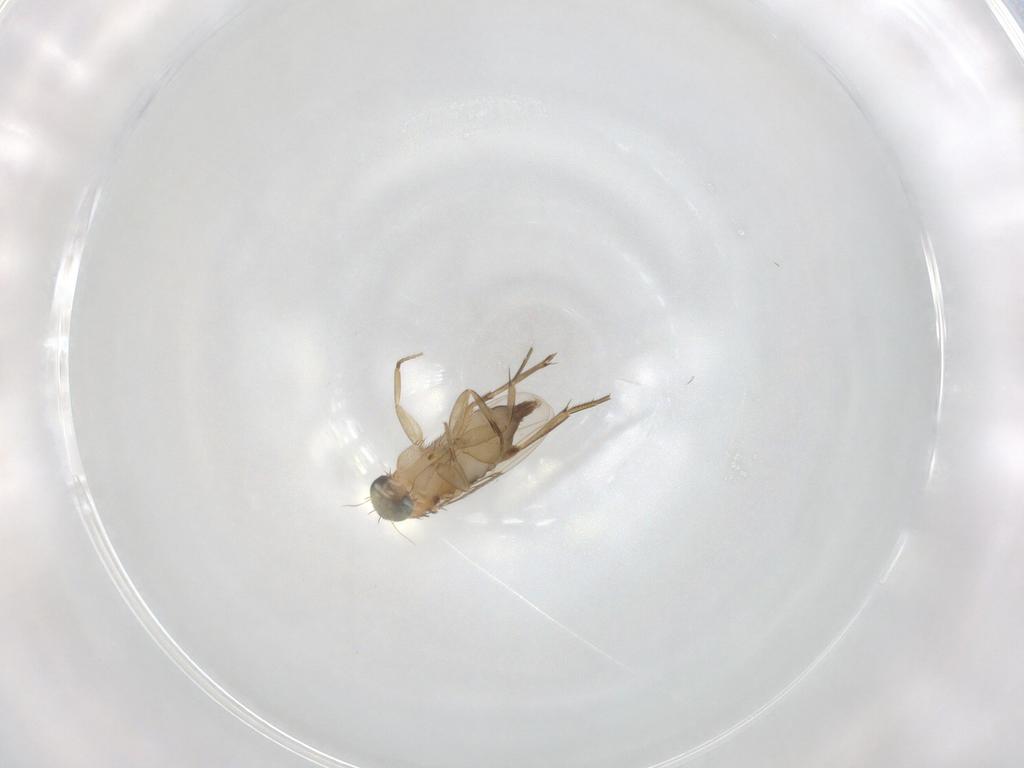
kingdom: Animalia
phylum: Arthropoda
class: Insecta
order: Diptera
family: Phoridae
